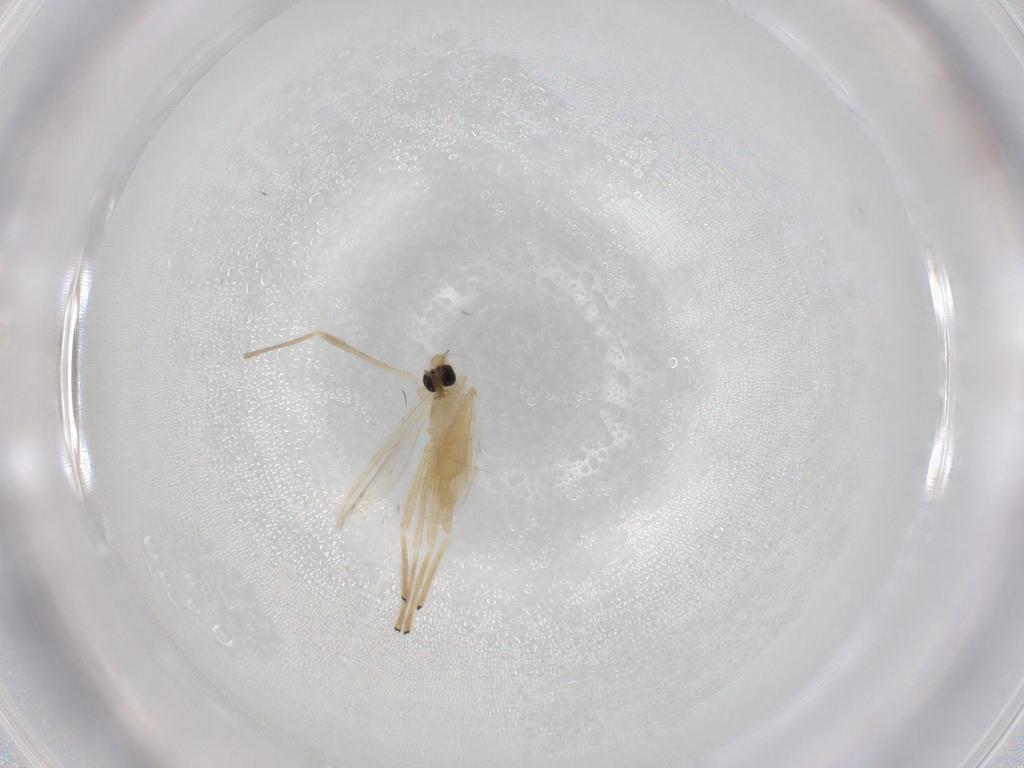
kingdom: Animalia
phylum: Arthropoda
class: Insecta
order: Diptera
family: Chironomidae
